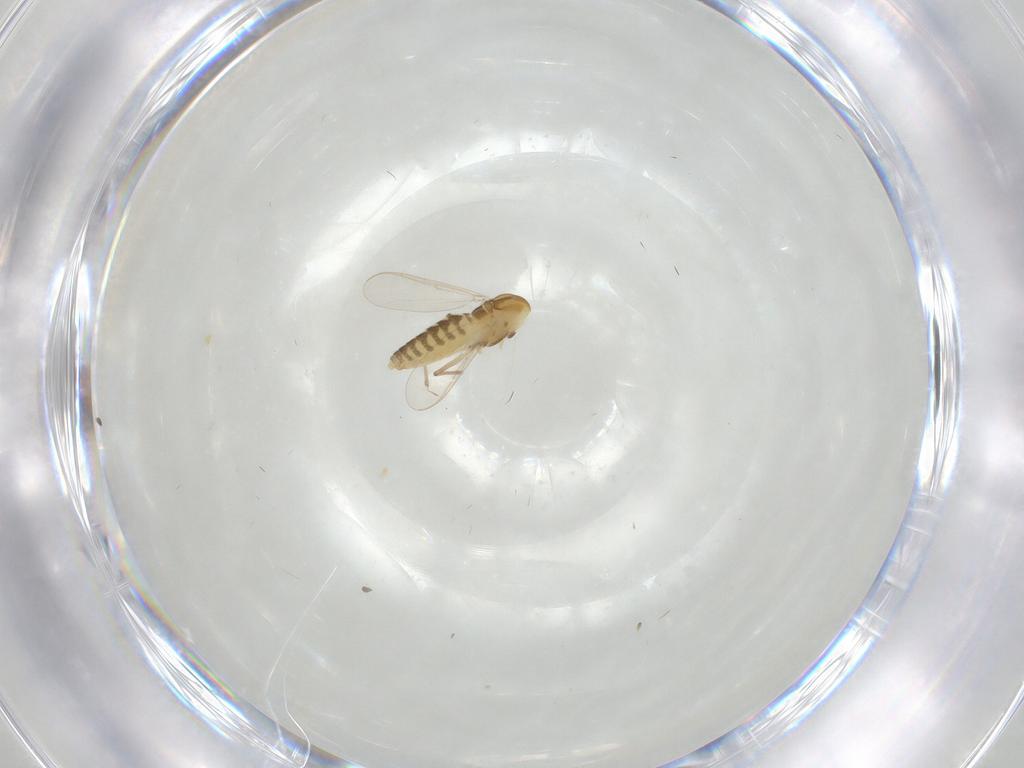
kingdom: Animalia
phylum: Arthropoda
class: Insecta
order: Diptera
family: Chironomidae
